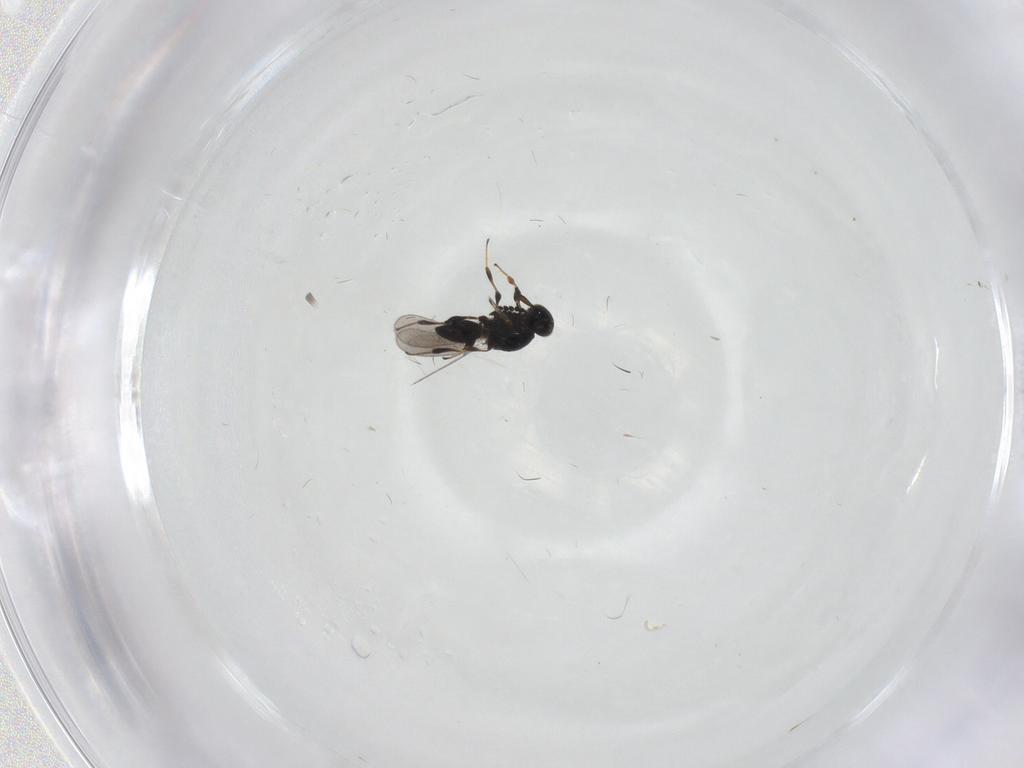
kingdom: Animalia
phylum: Arthropoda
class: Insecta
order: Hymenoptera
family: Platygastridae
